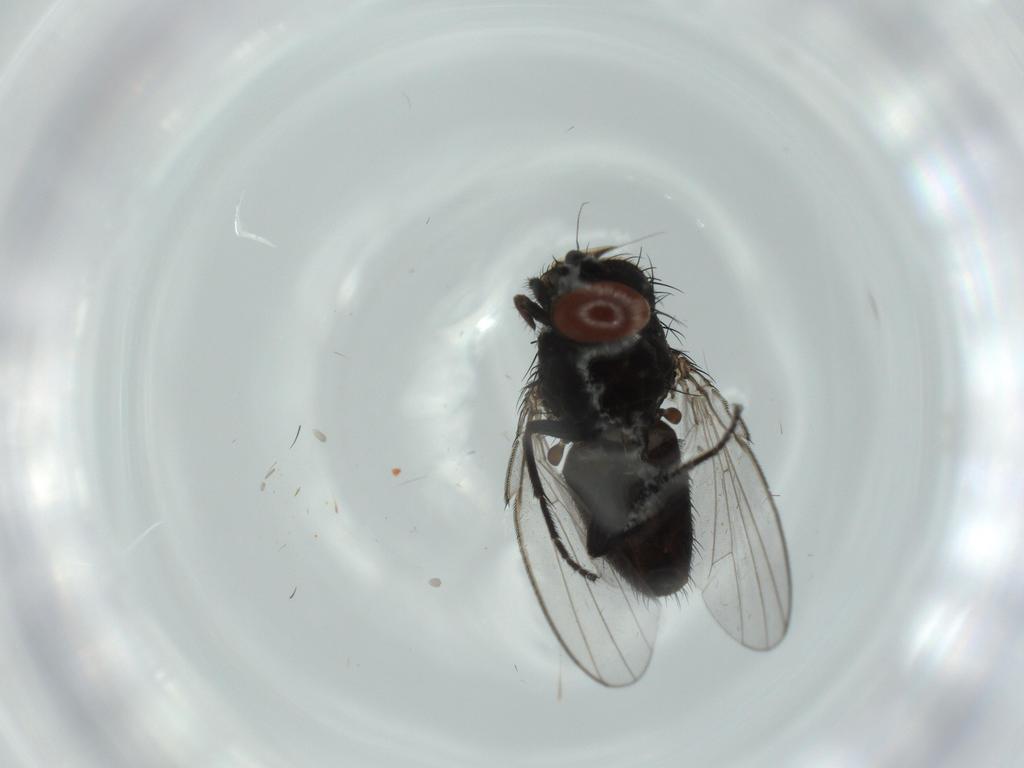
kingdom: Animalia
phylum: Arthropoda
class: Insecta
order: Diptera
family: Milichiidae
